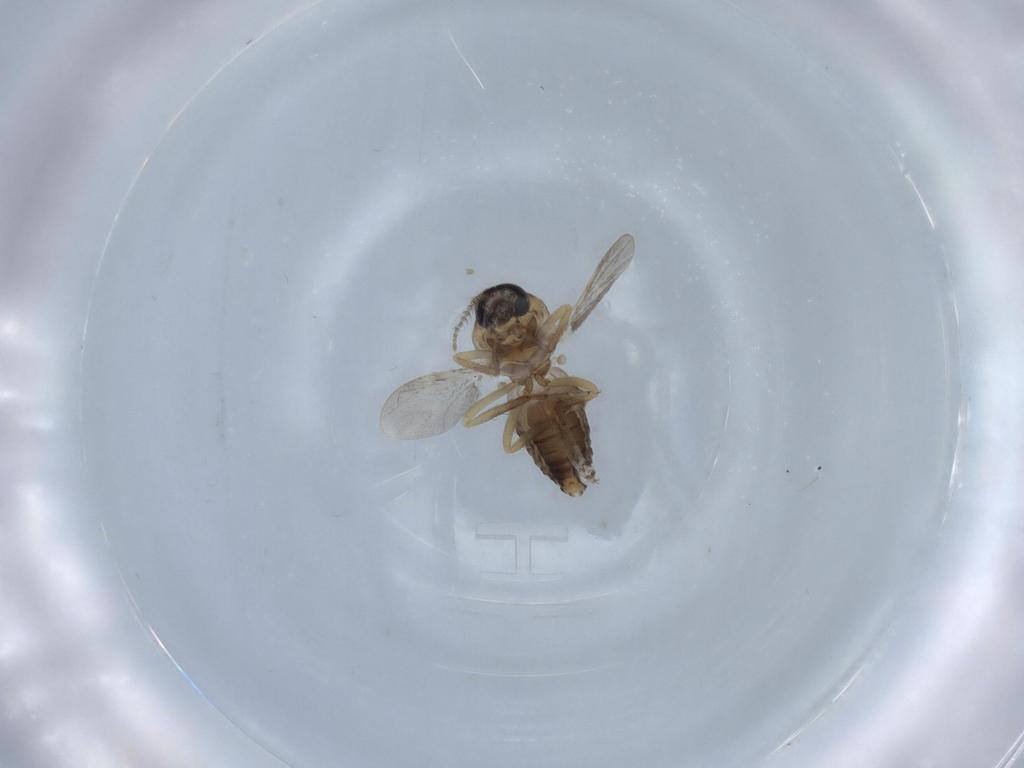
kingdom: Animalia
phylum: Arthropoda
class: Insecta
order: Diptera
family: Ceratopogonidae
